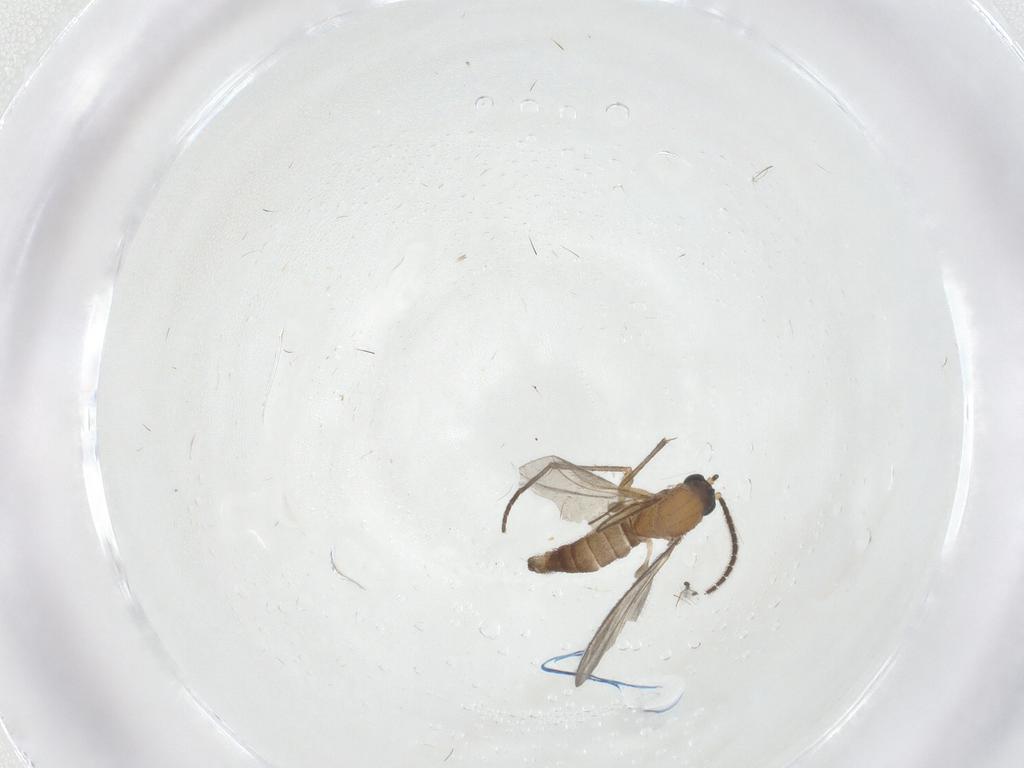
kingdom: Animalia
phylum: Arthropoda
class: Insecta
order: Diptera
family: Sciaridae
